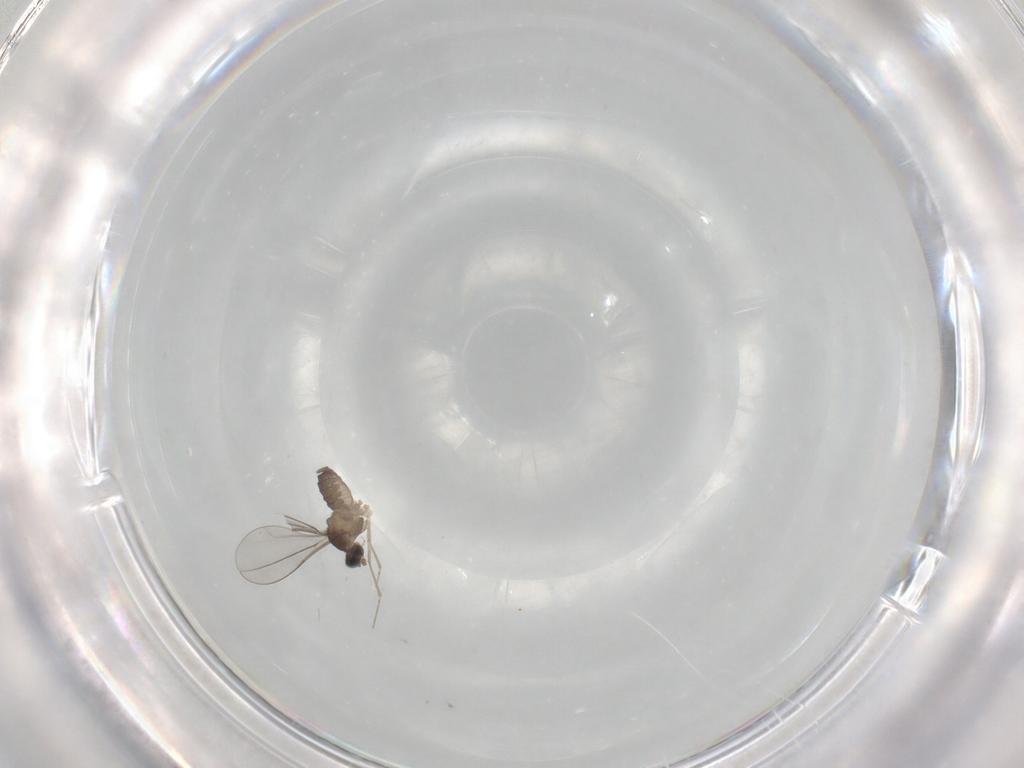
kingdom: Animalia
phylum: Arthropoda
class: Insecta
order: Diptera
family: Cecidomyiidae
